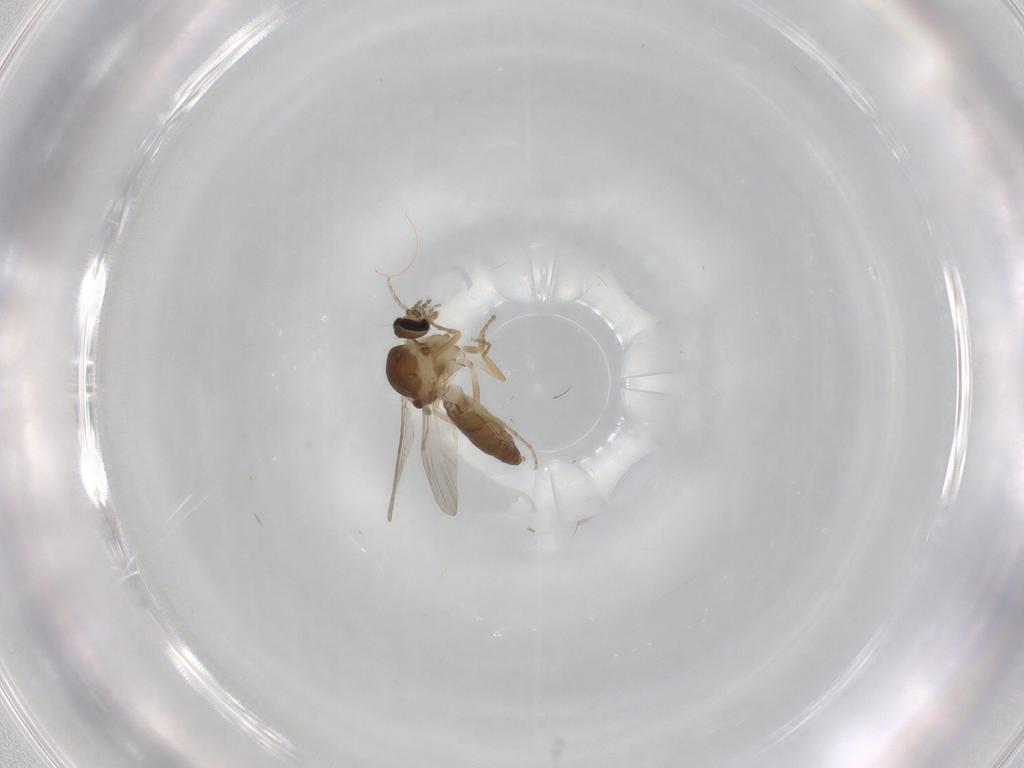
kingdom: Animalia
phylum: Arthropoda
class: Insecta
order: Diptera
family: Ceratopogonidae
